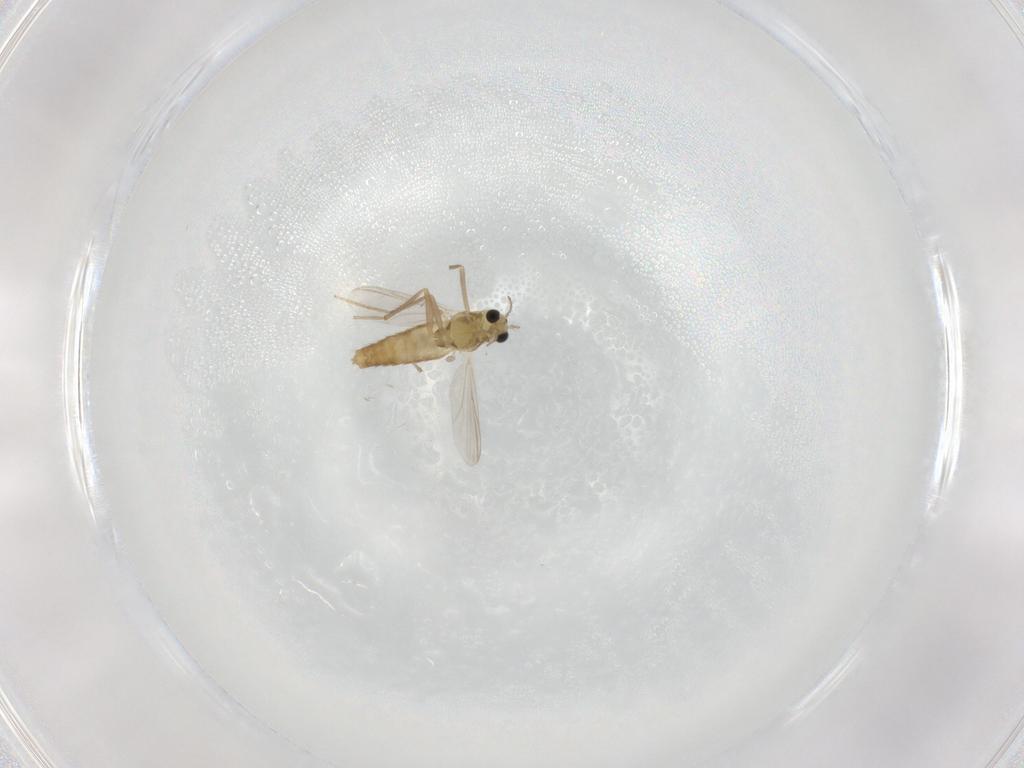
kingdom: Animalia
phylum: Arthropoda
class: Insecta
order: Diptera
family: Chironomidae
